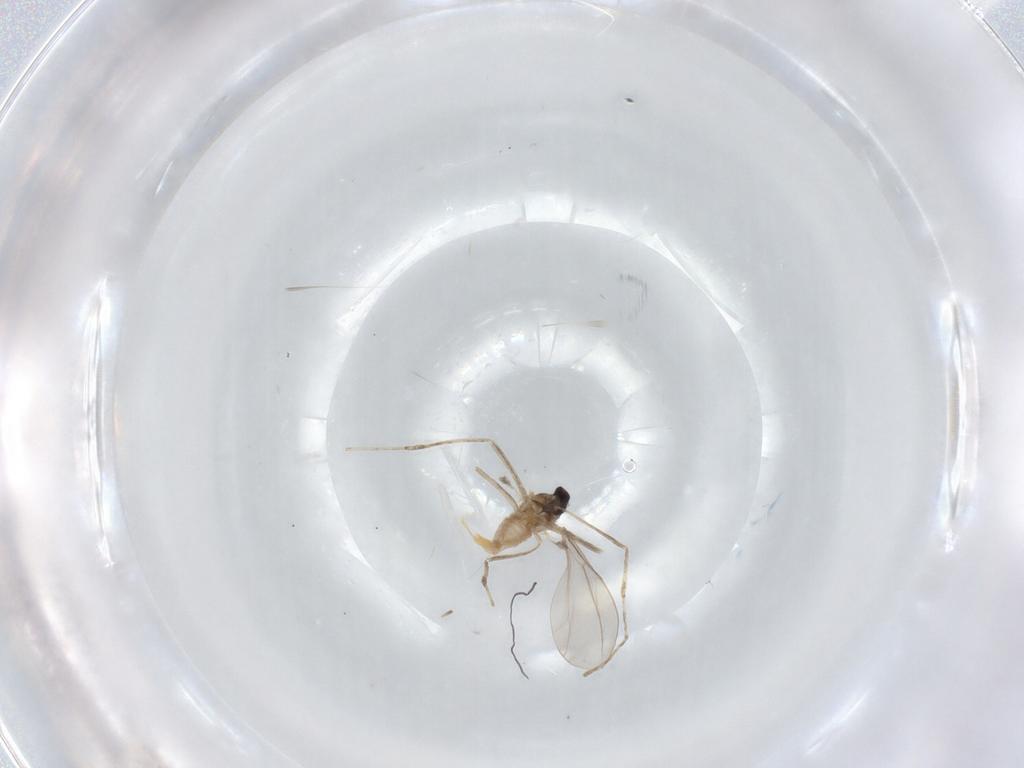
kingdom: Animalia
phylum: Arthropoda
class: Insecta
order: Diptera
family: Cecidomyiidae
